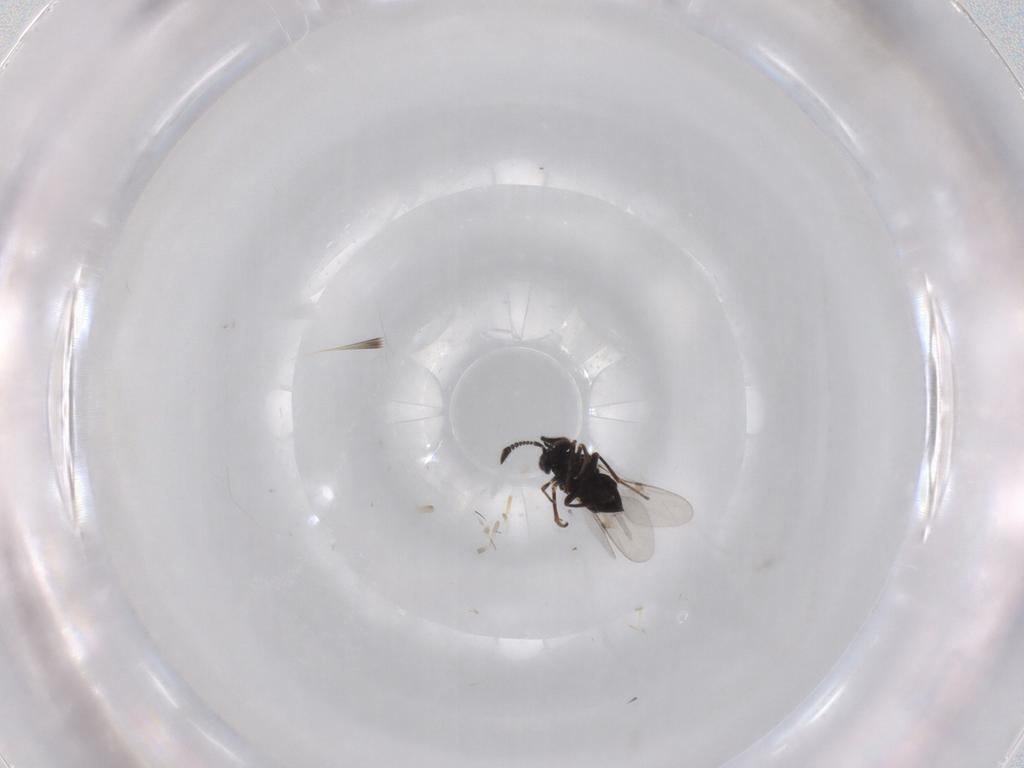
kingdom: Animalia
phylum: Arthropoda
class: Insecta
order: Hymenoptera
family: Encyrtidae
